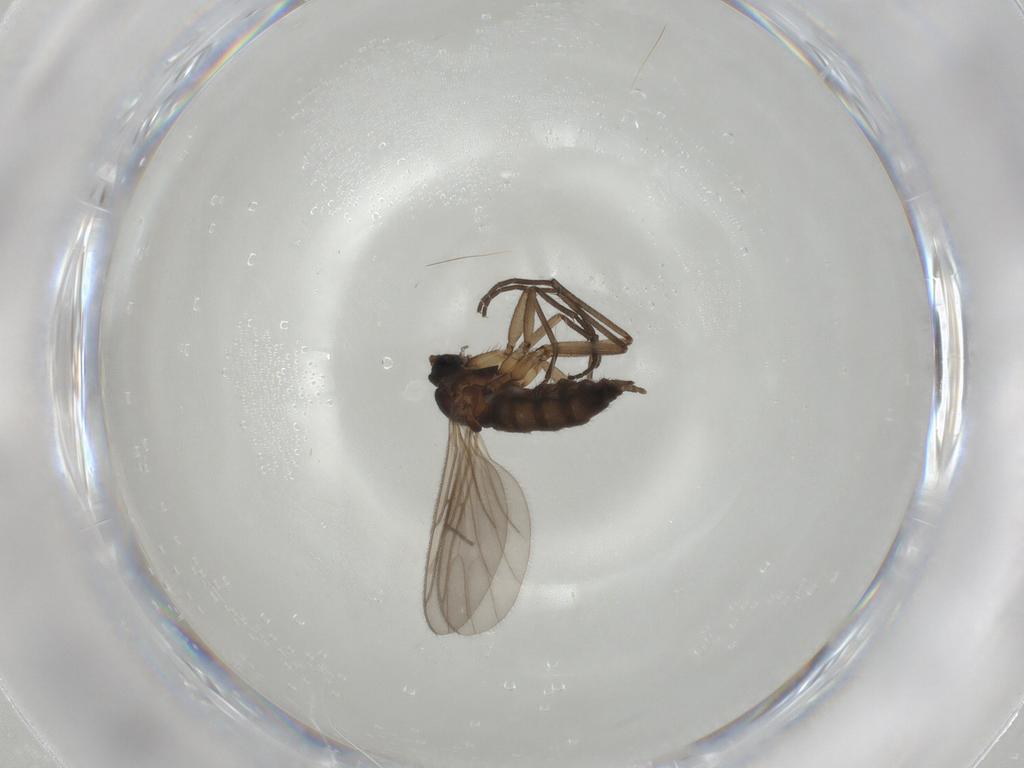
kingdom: Animalia
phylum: Arthropoda
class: Insecta
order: Diptera
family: Sciaridae
